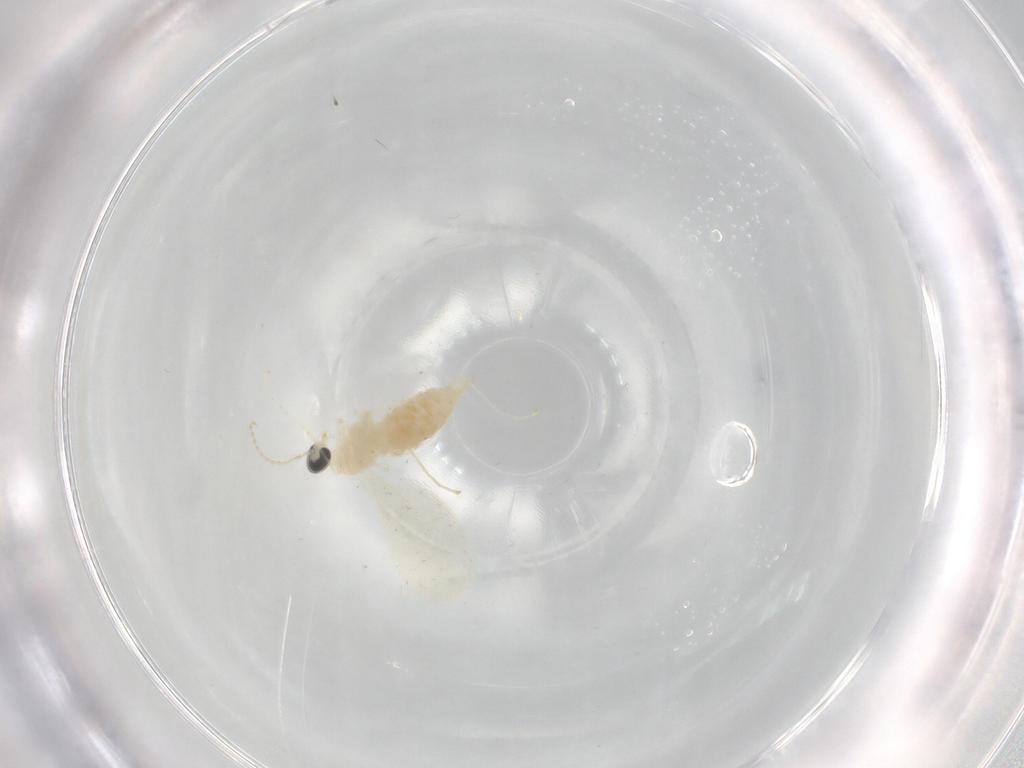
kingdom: Animalia
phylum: Arthropoda
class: Insecta
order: Diptera
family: Cecidomyiidae
